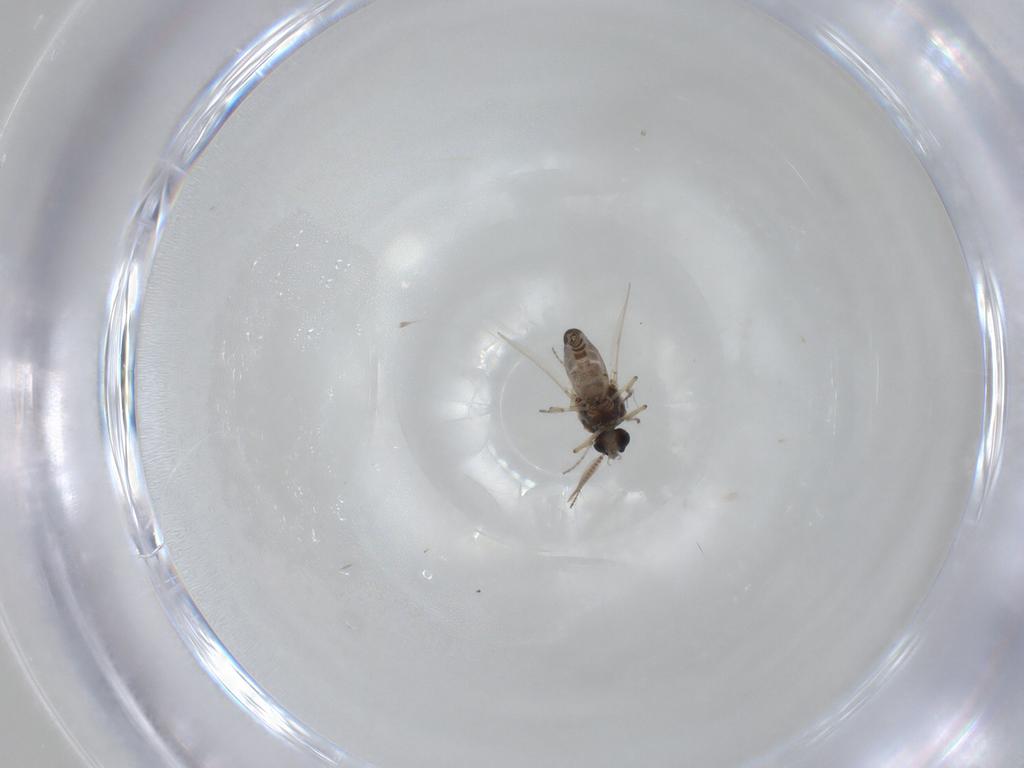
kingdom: Animalia
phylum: Arthropoda
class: Insecta
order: Diptera
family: Ceratopogonidae
